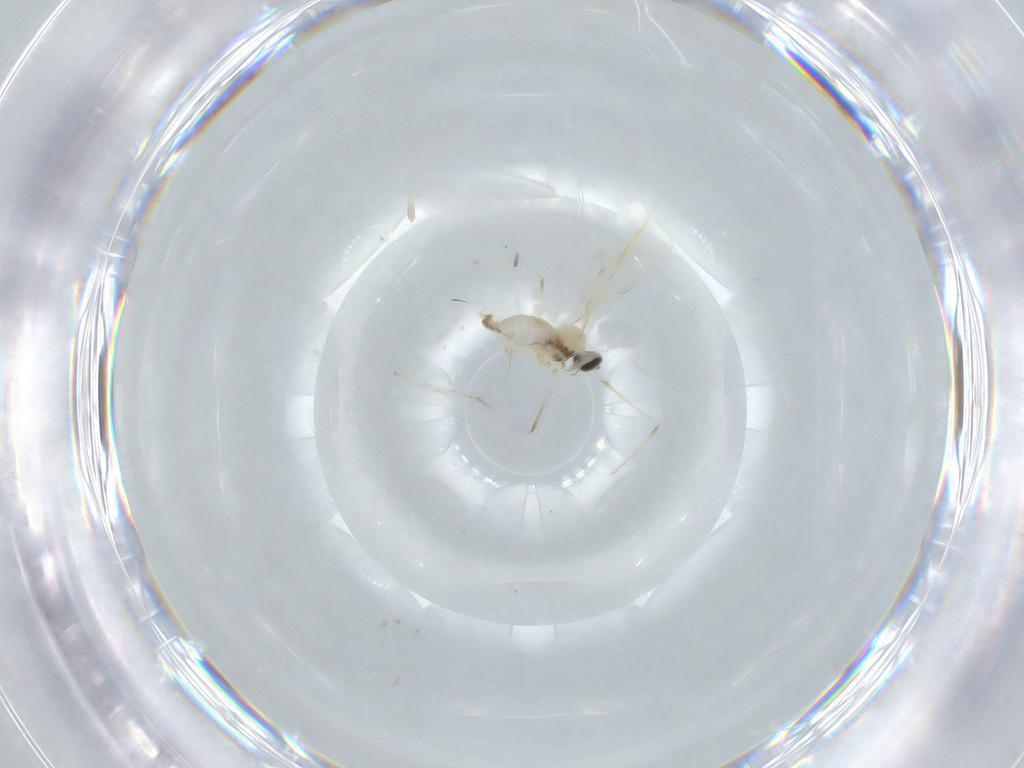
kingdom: Animalia
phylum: Arthropoda
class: Insecta
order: Diptera
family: Cecidomyiidae
